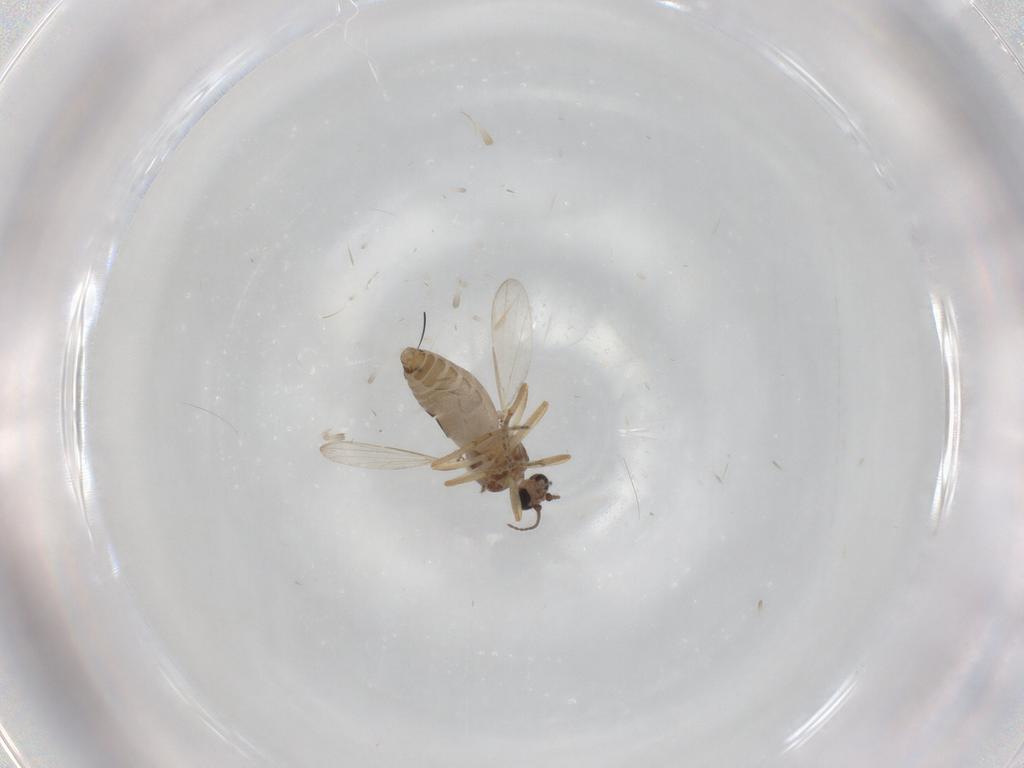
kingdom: Animalia
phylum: Arthropoda
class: Insecta
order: Diptera
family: Ceratopogonidae
